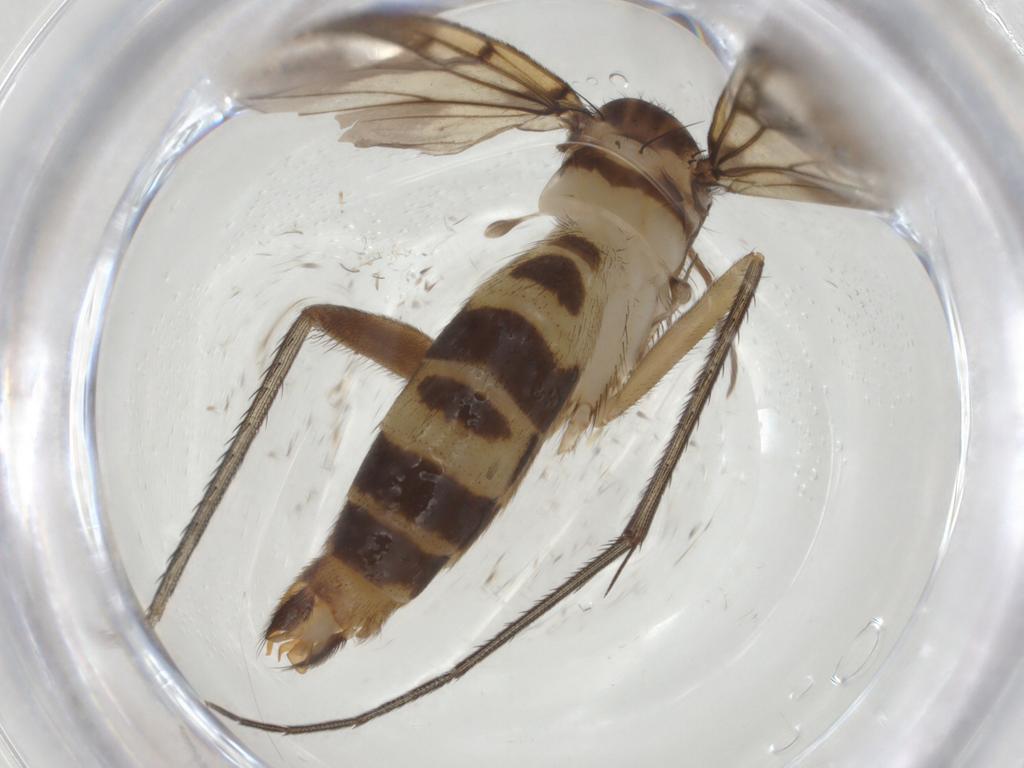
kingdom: Animalia
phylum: Arthropoda
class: Insecta
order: Diptera
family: Mycetophilidae
